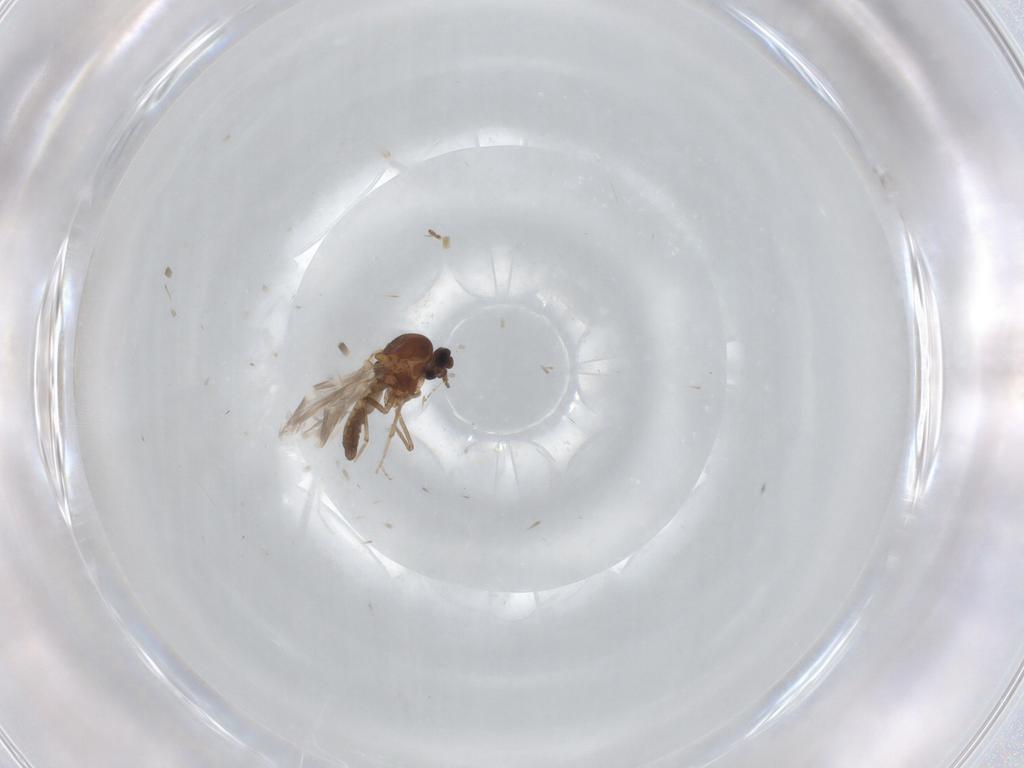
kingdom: Animalia
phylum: Arthropoda
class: Insecta
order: Diptera
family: Ceratopogonidae
